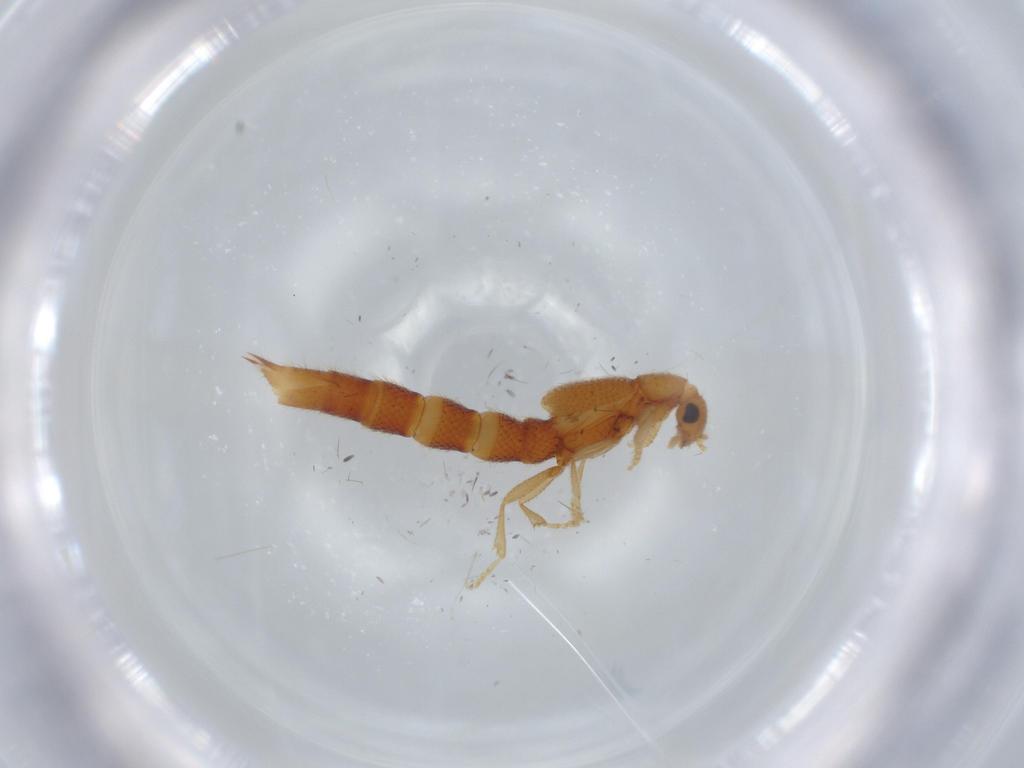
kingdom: Animalia
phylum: Arthropoda
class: Insecta
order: Coleoptera
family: Staphylinidae
